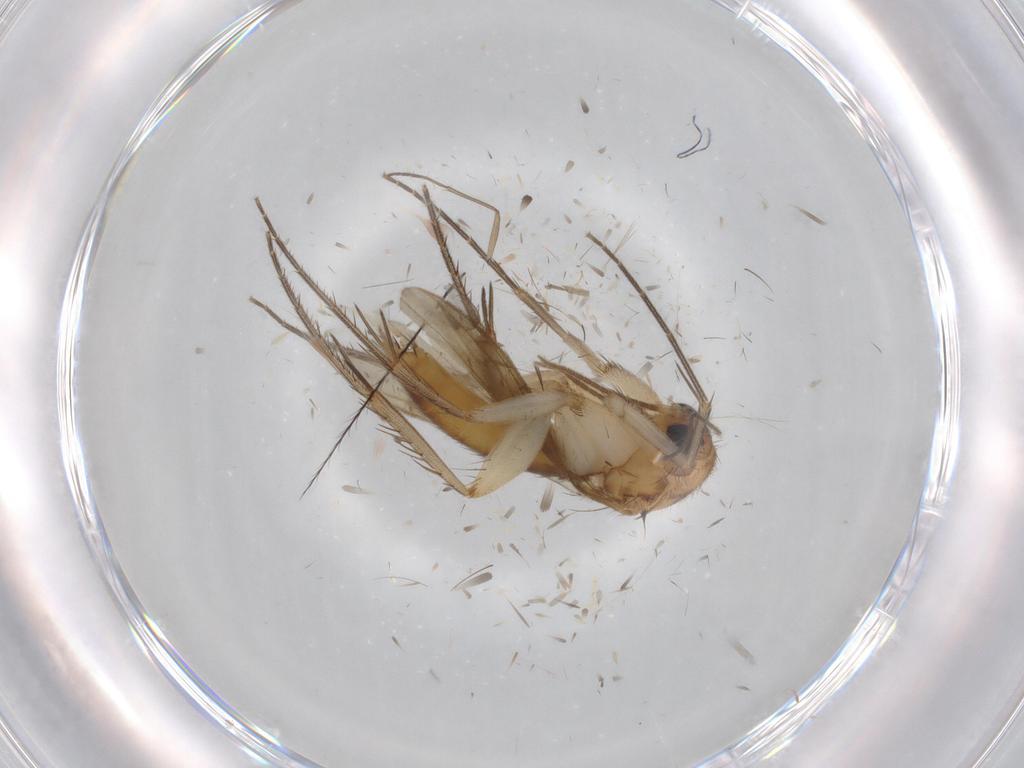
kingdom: Animalia
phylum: Arthropoda
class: Insecta
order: Diptera
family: Mycetophilidae
